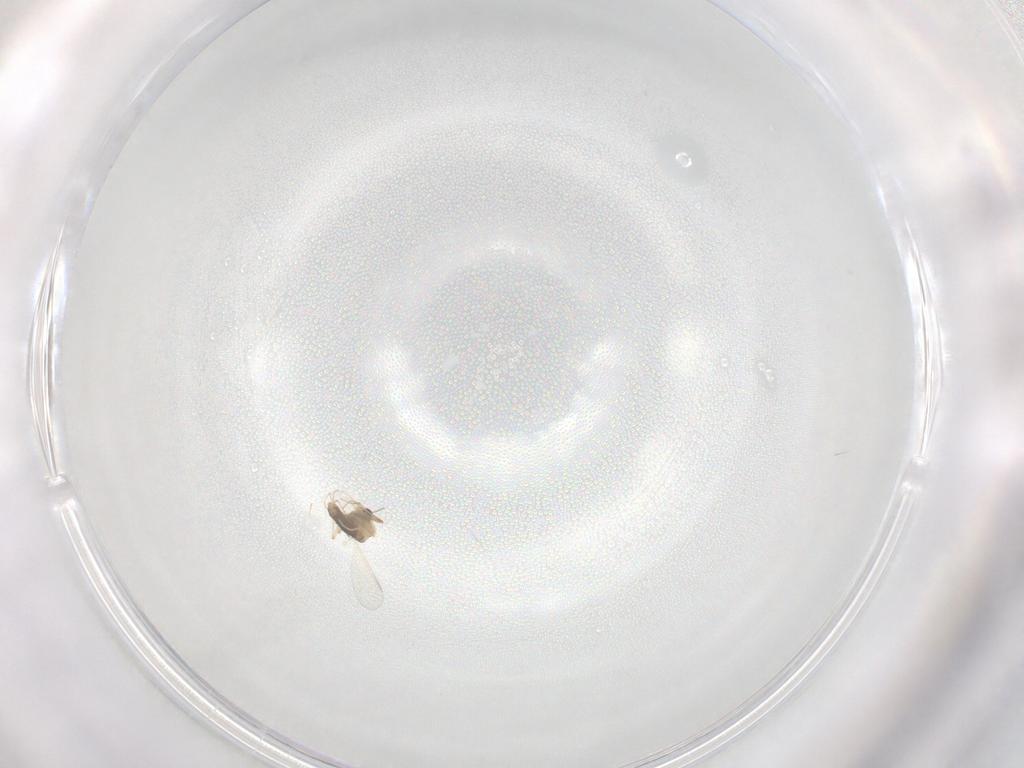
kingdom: Animalia
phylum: Arthropoda
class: Insecta
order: Diptera
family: Chironomidae
